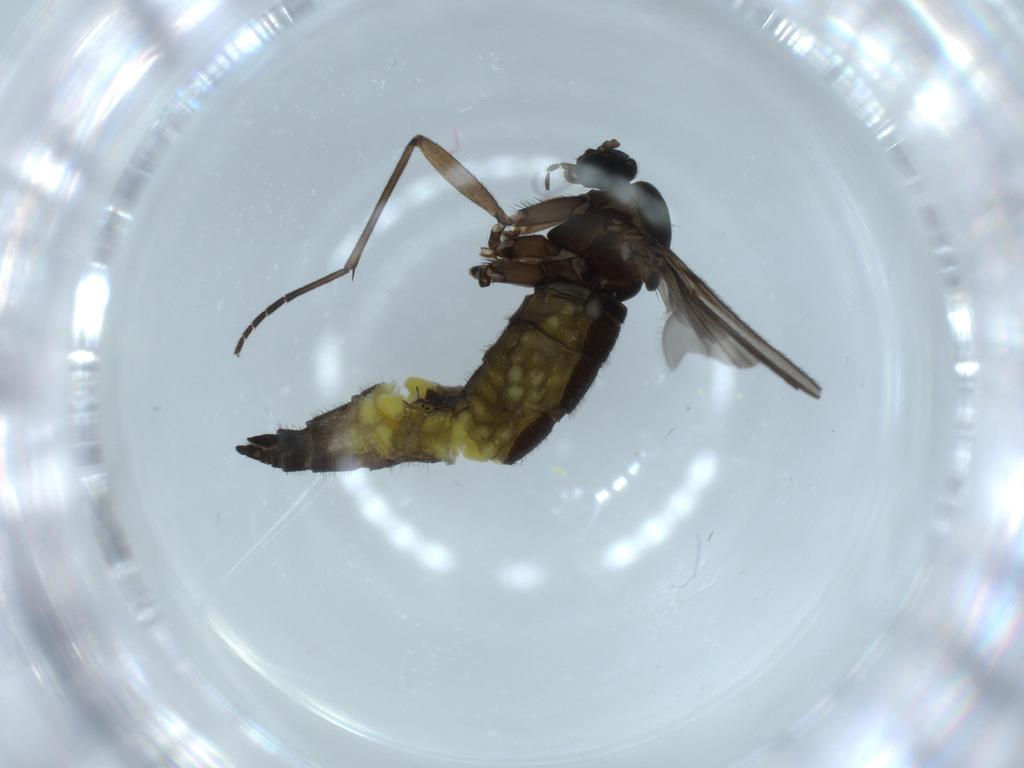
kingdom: Animalia
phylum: Arthropoda
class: Insecta
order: Diptera
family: Sciaridae
